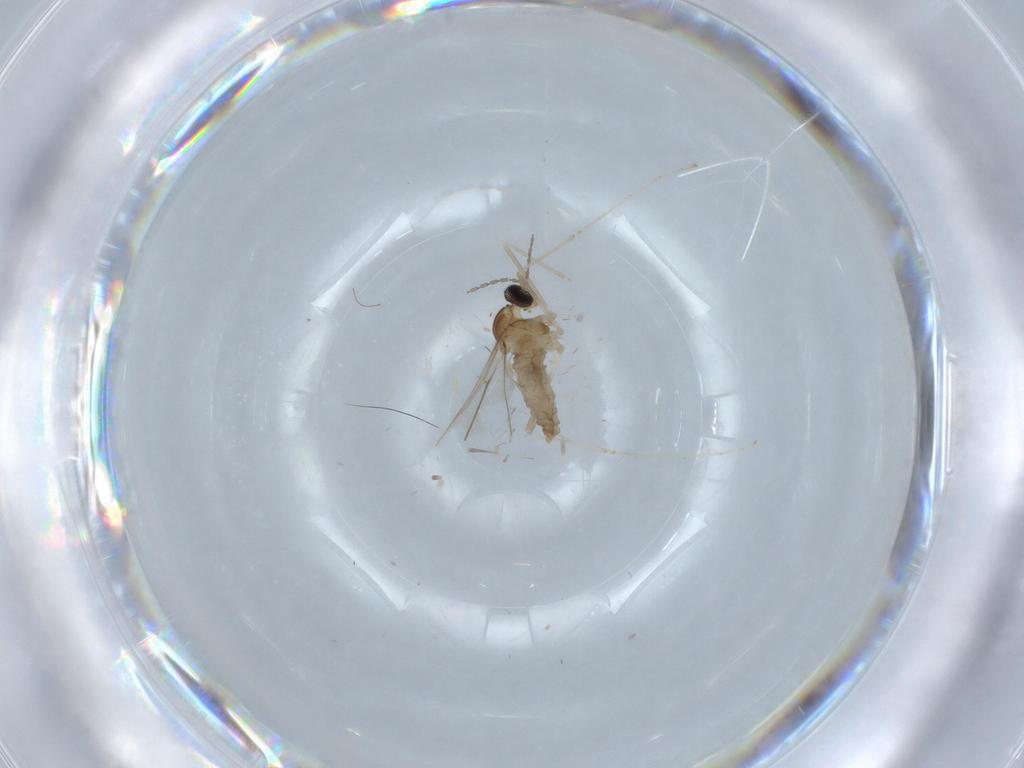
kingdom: Animalia
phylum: Arthropoda
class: Insecta
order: Diptera
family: Cecidomyiidae
